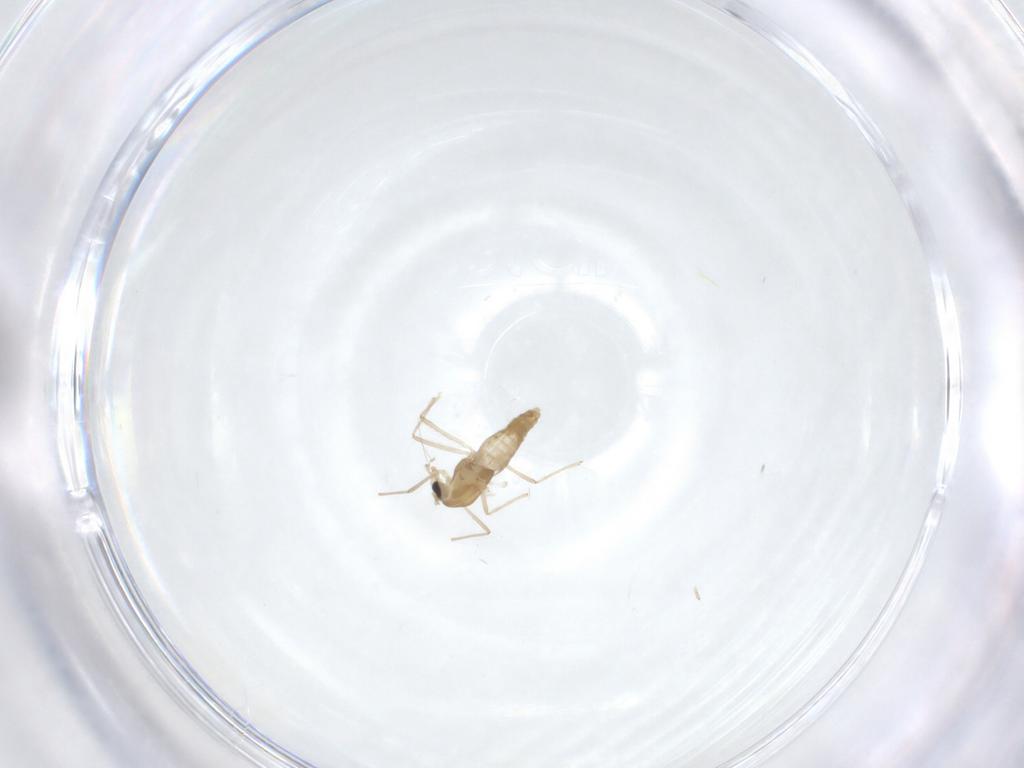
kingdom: Animalia
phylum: Arthropoda
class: Insecta
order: Diptera
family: Chironomidae
